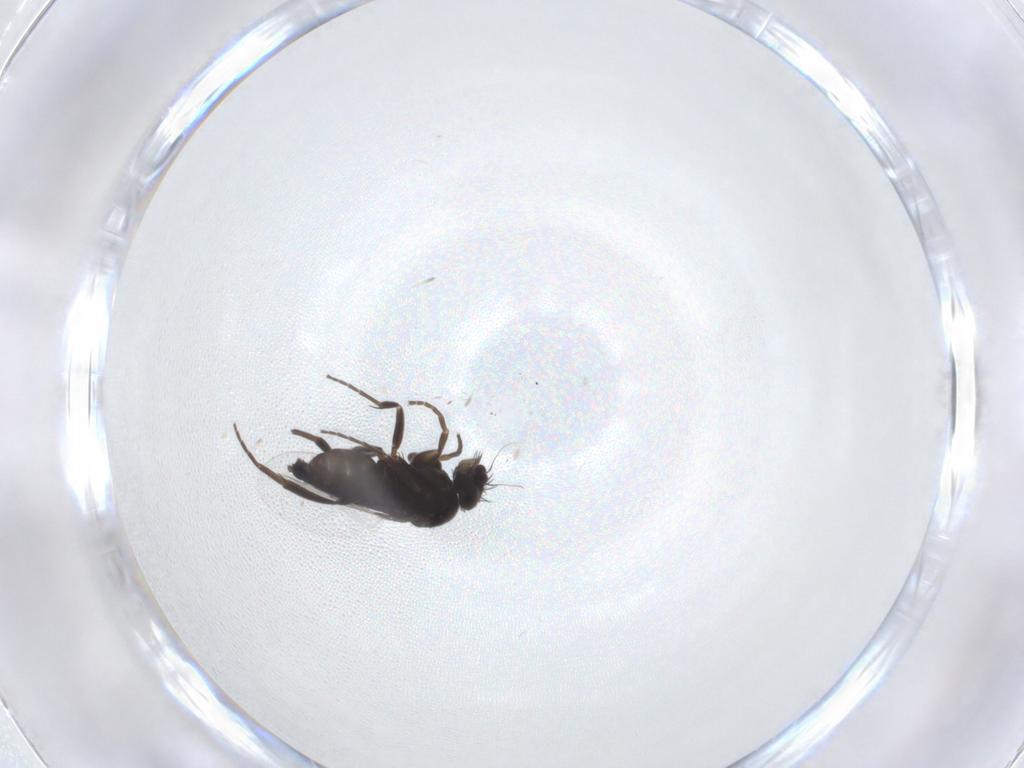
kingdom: Animalia
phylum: Arthropoda
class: Insecta
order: Diptera
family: Phoridae
